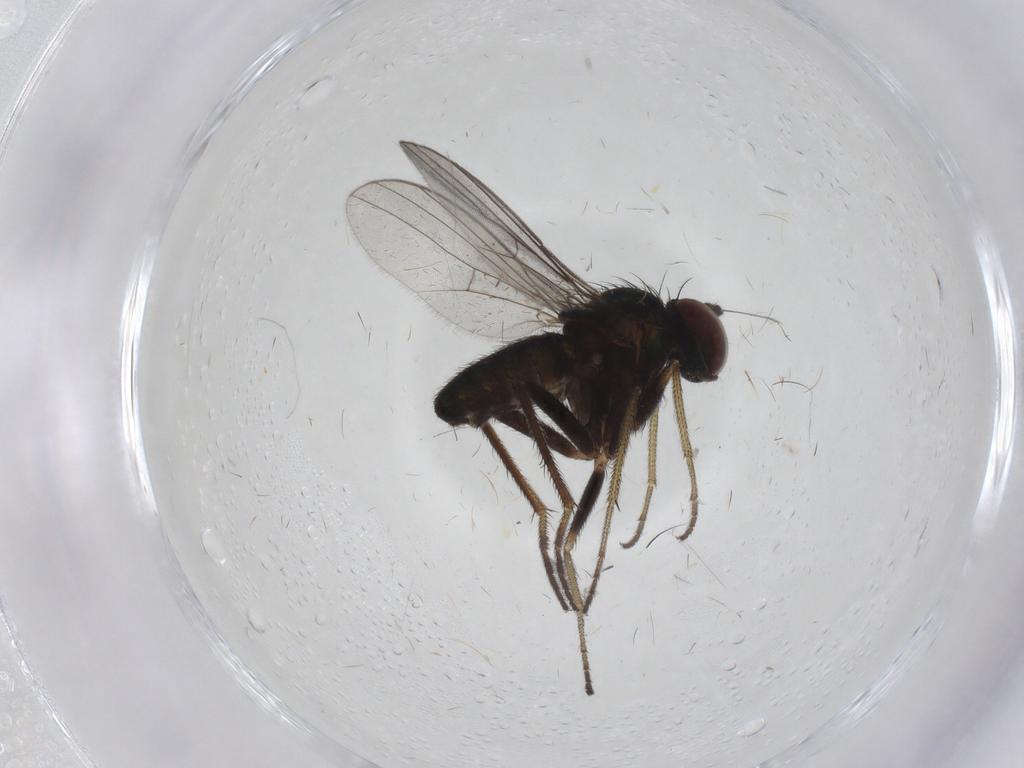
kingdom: Animalia
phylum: Arthropoda
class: Insecta
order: Diptera
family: Dolichopodidae
